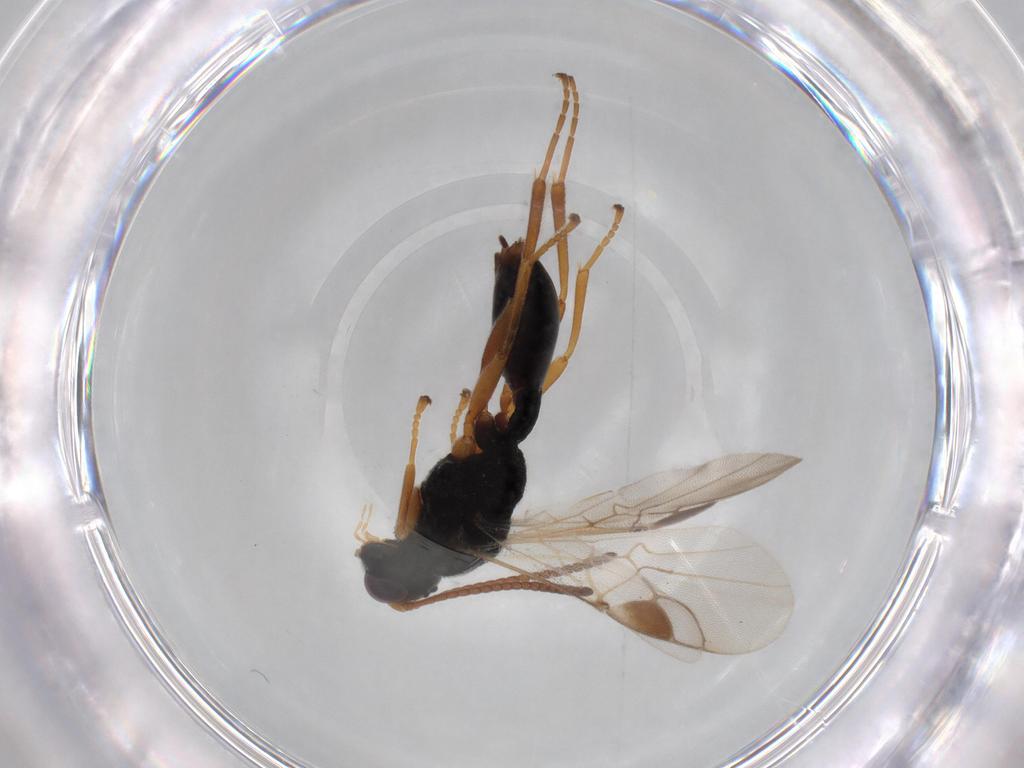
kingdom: Animalia
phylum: Arthropoda
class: Insecta
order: Hymenoptera
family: Braconidae
